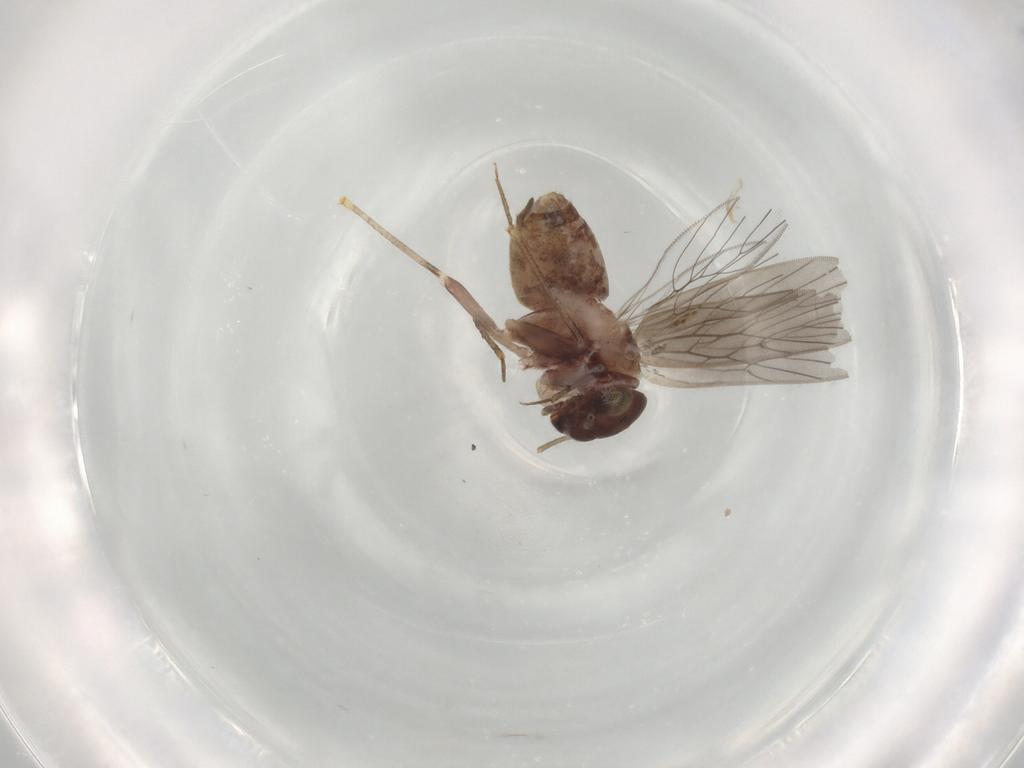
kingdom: Animalia
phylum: Arthropoda
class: Insecta
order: Psocodea
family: Lepidopsocidae
